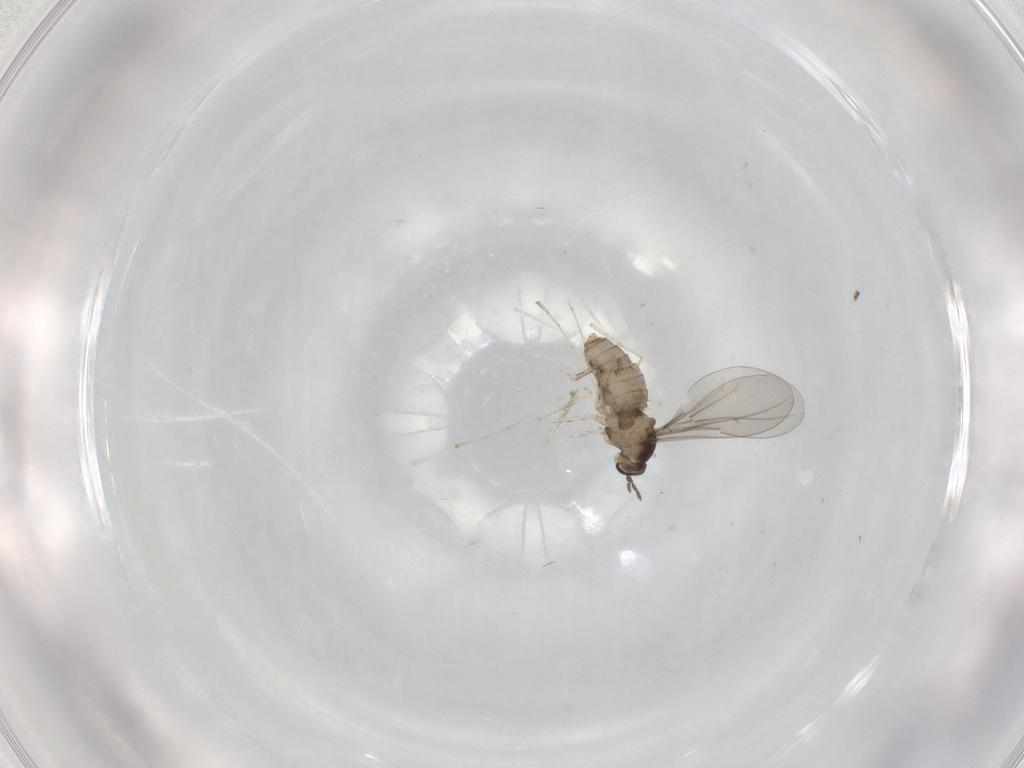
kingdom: Animalia
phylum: Arthropoda
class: Insecta
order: Diptera
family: Cecidomyiidae
